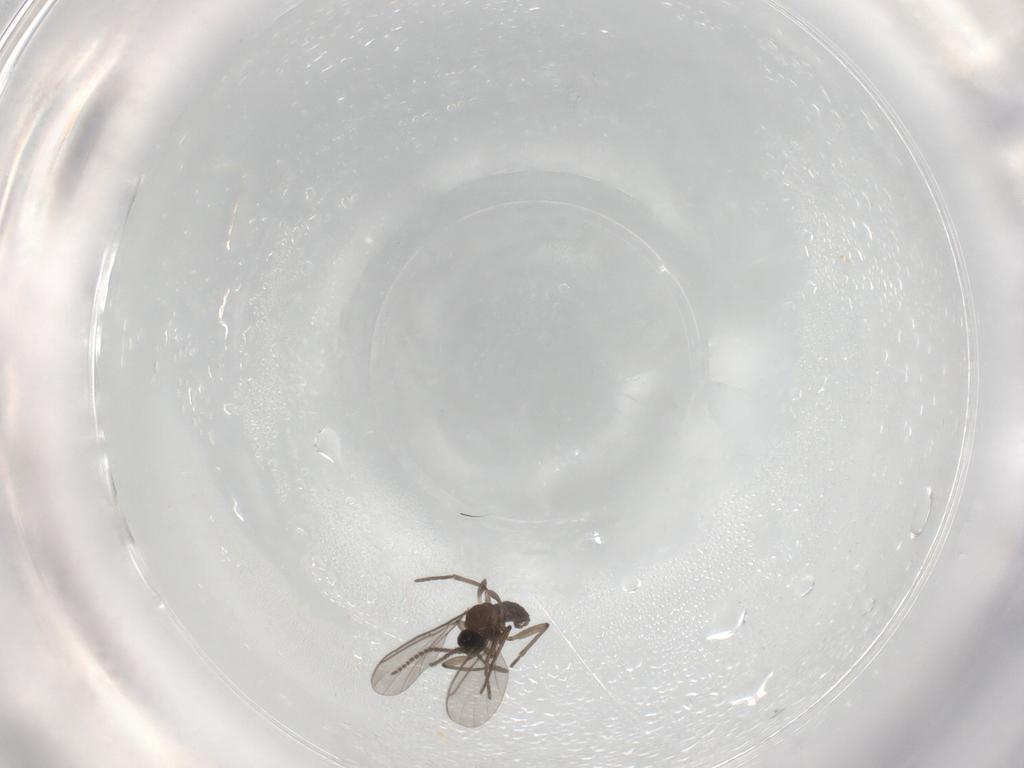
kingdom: Animalia
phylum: Arthropoda
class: Insecta
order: Diptera
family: Sciaridae
